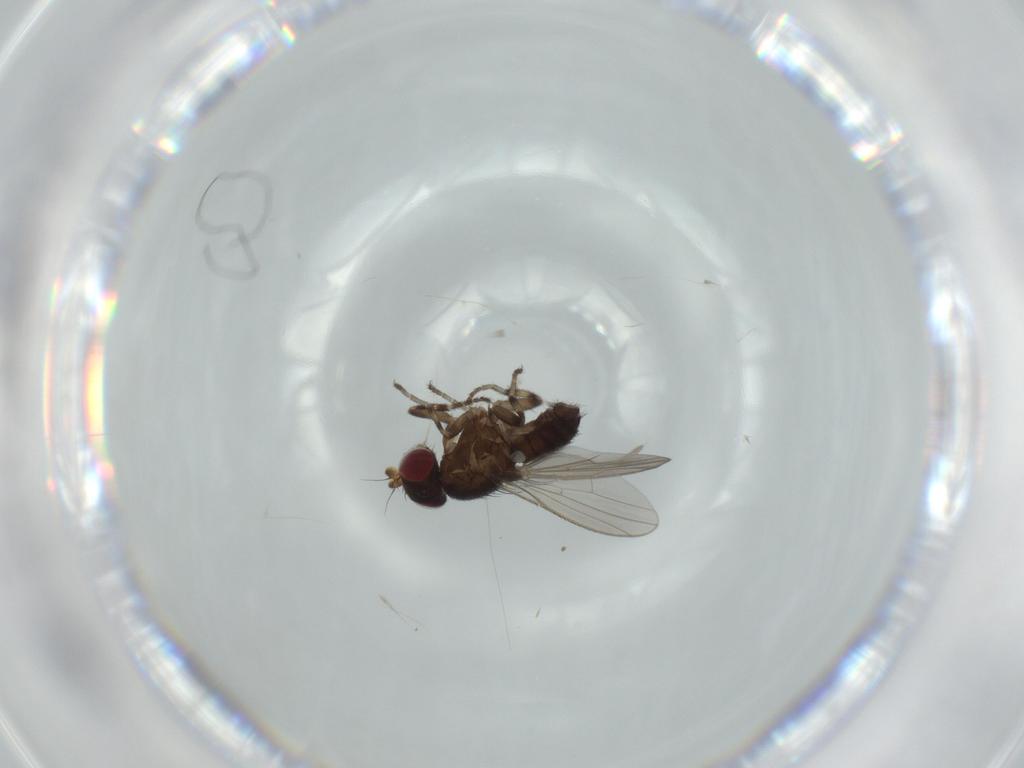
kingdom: Animalia
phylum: Arthropoda
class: Insecta
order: Diptera
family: Heleomyzidae
